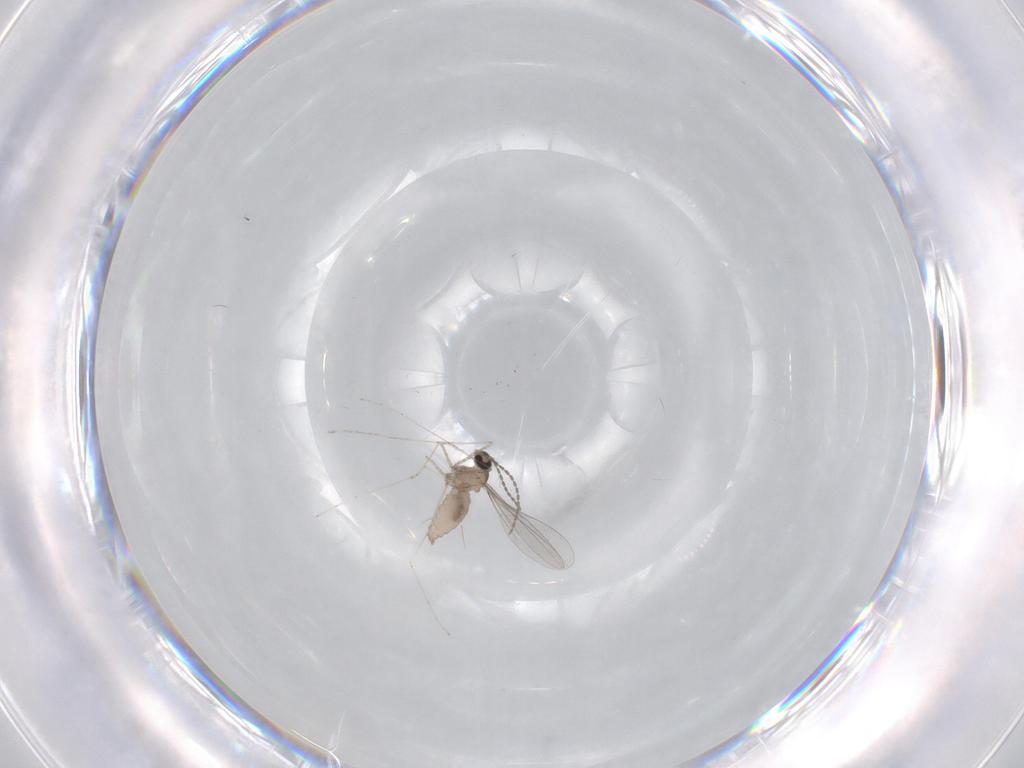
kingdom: Animalia
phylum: Arthropoda
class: Insecta
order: Diptera
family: Cecidomyiidae
